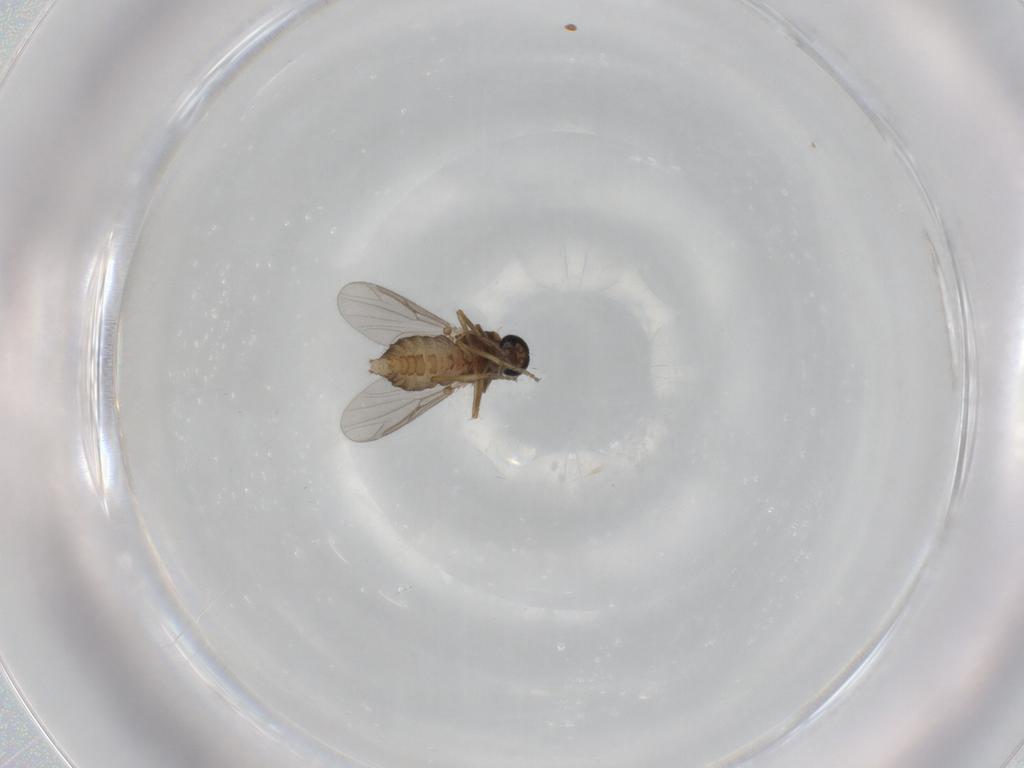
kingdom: Animalia
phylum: Arthropoda
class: Insecta
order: Diptera
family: Ceratopogonidae
